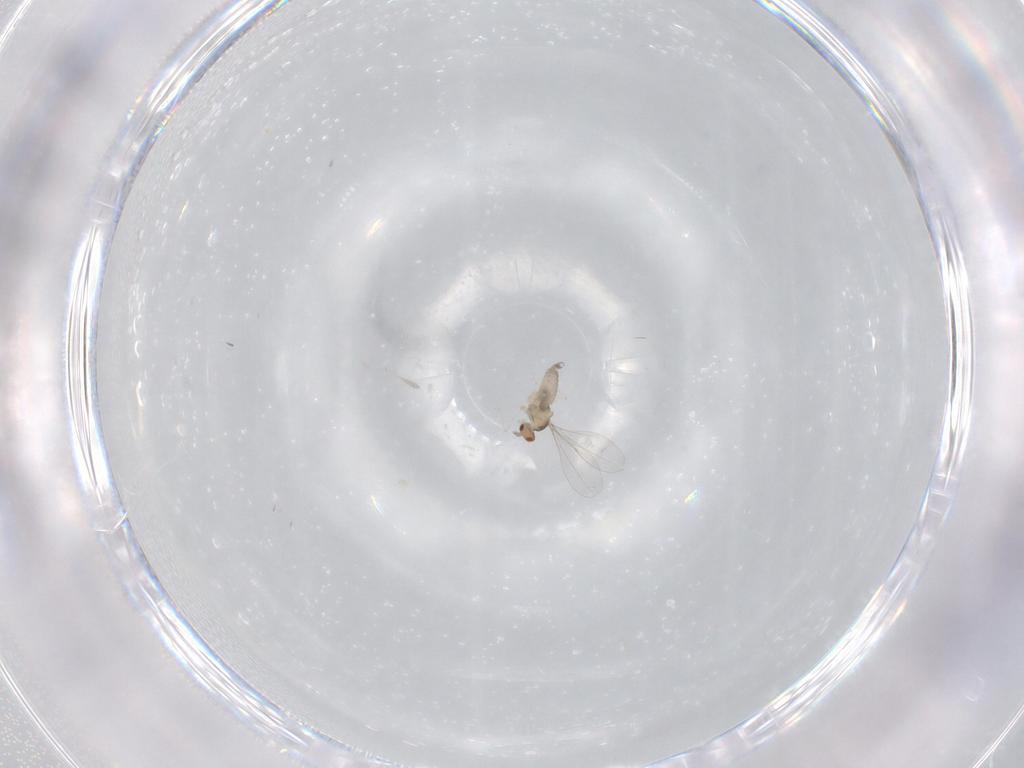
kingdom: Animalia
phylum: Arthropoda
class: Insecta
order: Diptera
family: Cecidomyiidae
